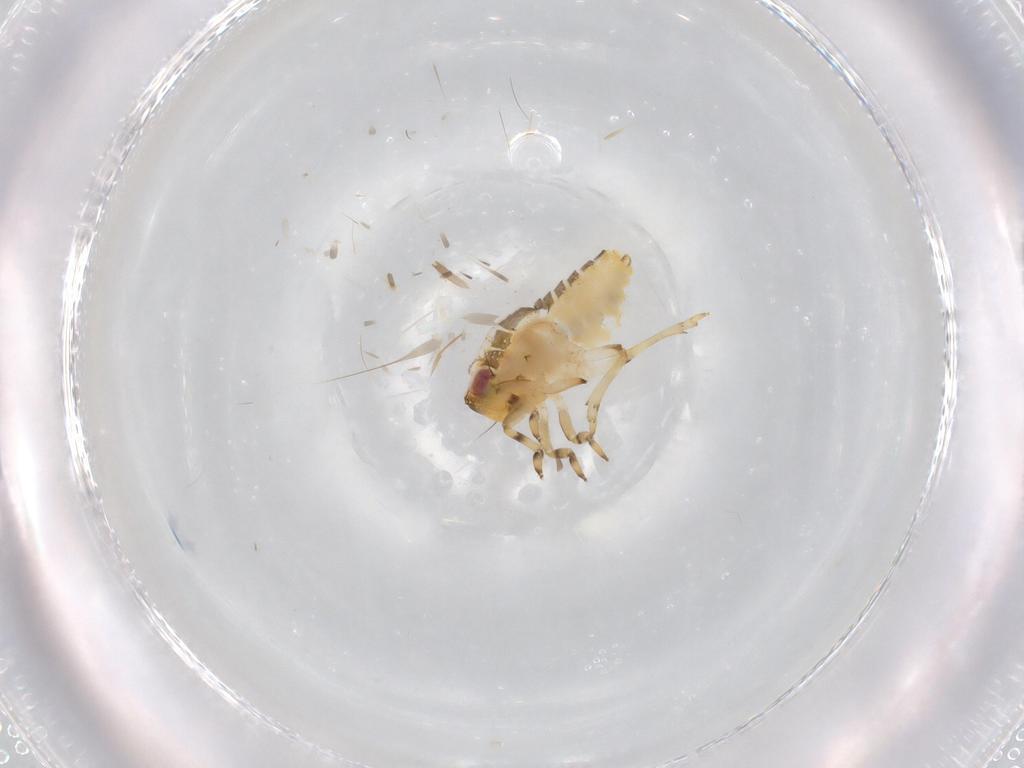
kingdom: Animalia
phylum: Arthropoda
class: Insecta
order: Hemiptera
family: Issidae
